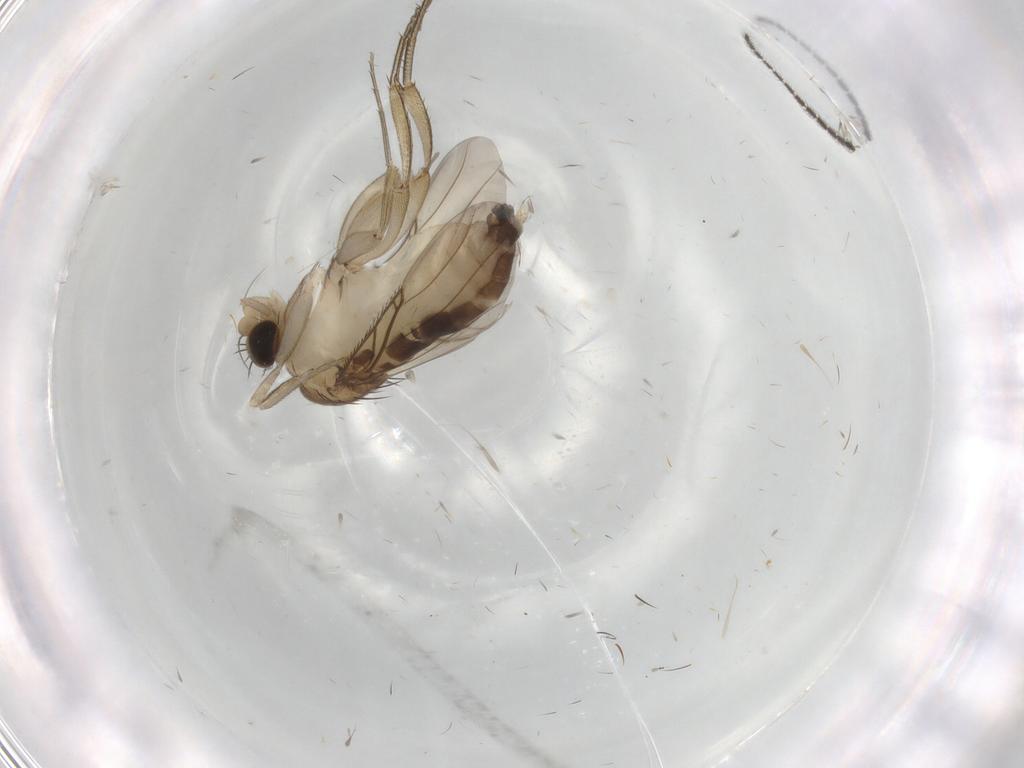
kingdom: Animalia
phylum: Arthropoda
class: Insecta
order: Diptera
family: Phoridae
